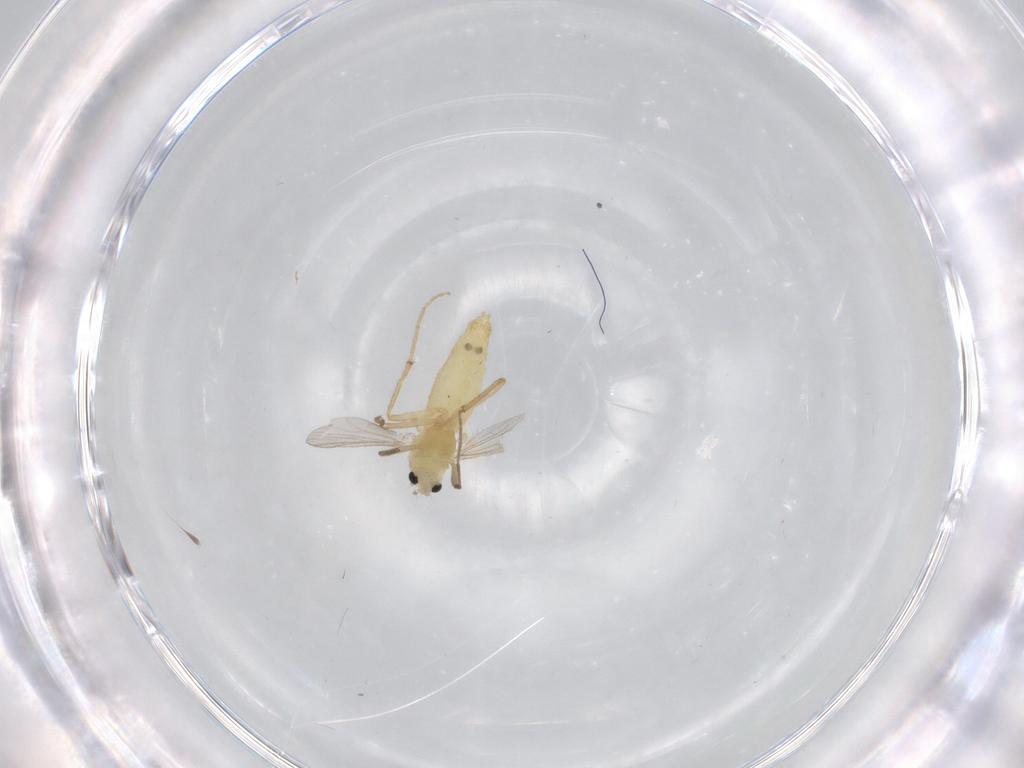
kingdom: Animalia
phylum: Arthropoda
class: Insecta
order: Diptera
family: Chironomidae
